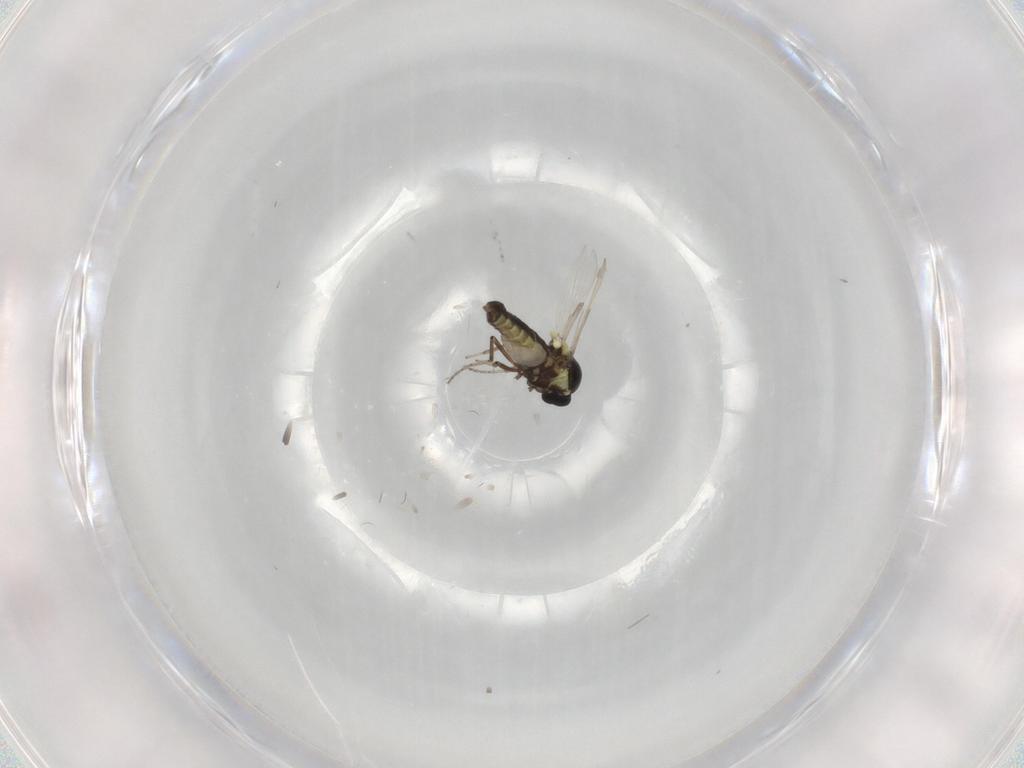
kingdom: Animalia
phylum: Arthropoda
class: Insecta
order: Diptera
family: Ceratopogonidae
